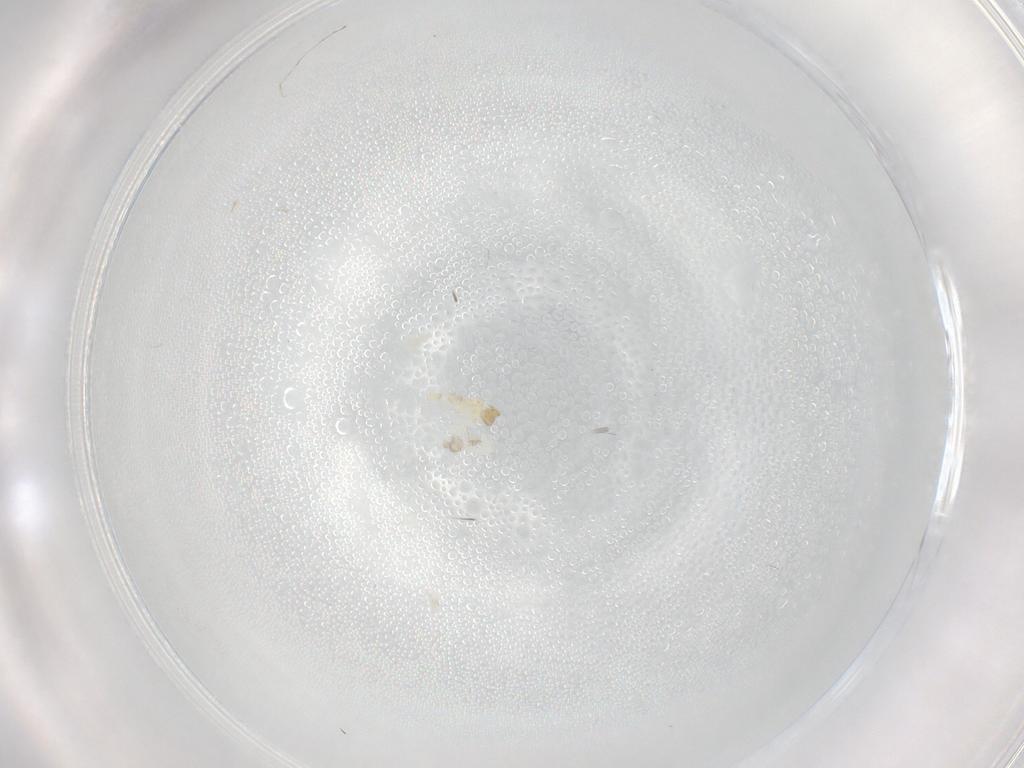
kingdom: Animalia
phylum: Arthropoda
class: Insecta
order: Diptera
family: Cecidomyiidae
